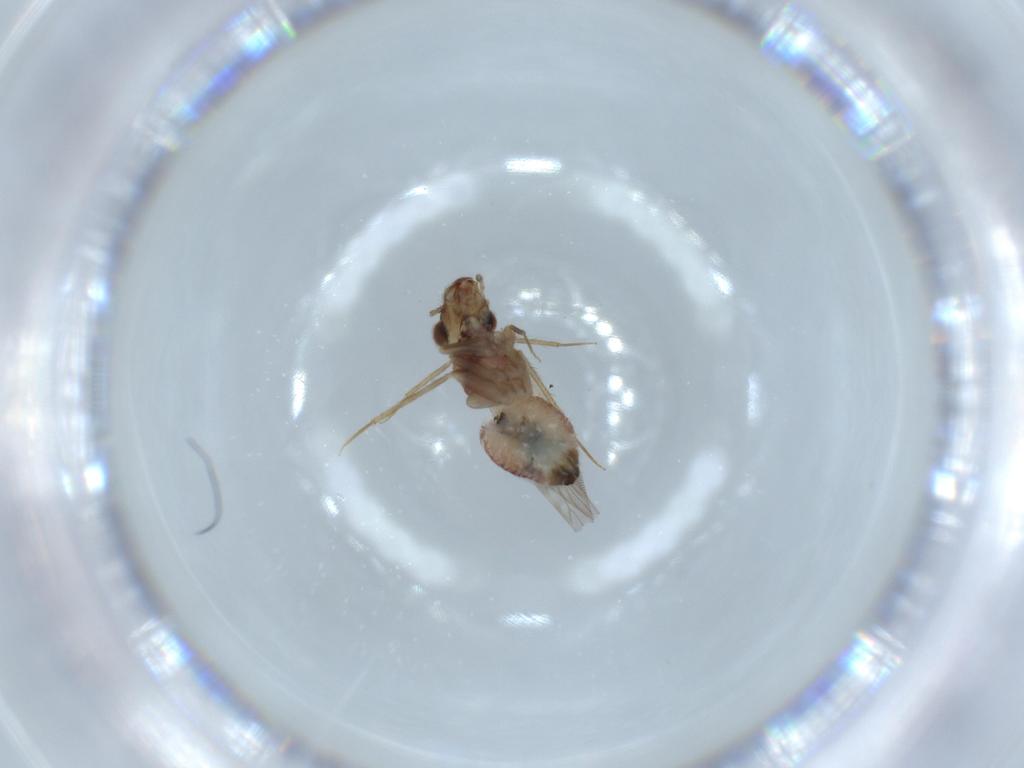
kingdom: Animalia
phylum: Arthropoda
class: Insecta
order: Psocodea
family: Lepidopsocidae
